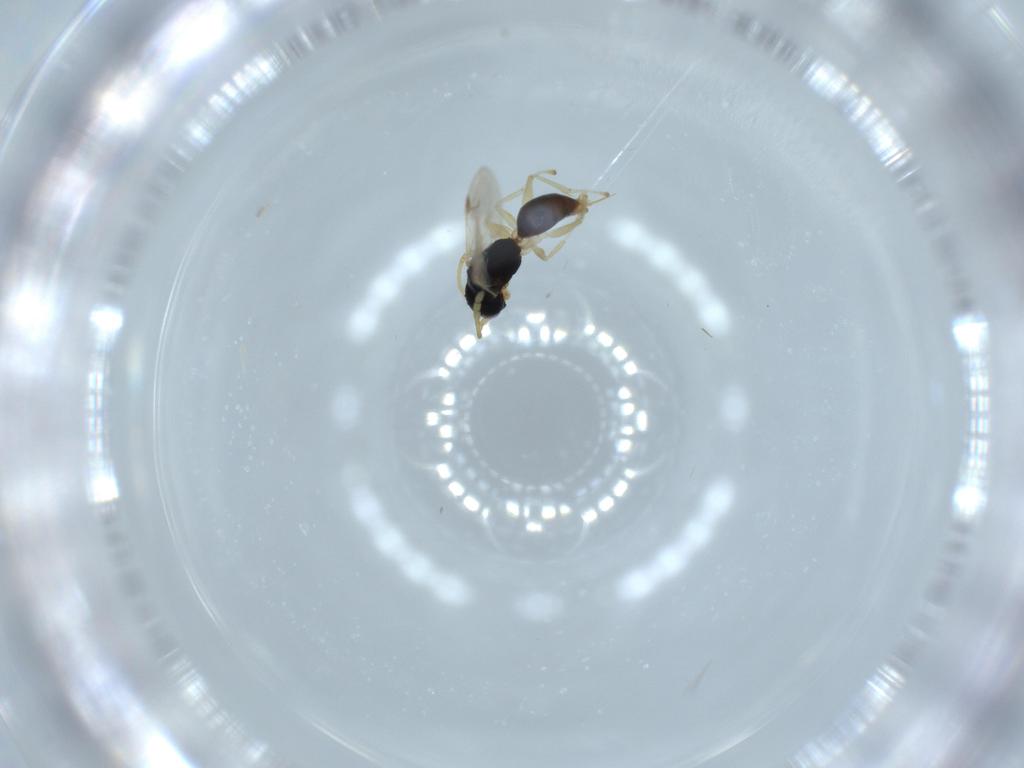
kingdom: Animalia
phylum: Arthropoda
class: Insecta
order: Hymenoptera
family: Dryinidae
